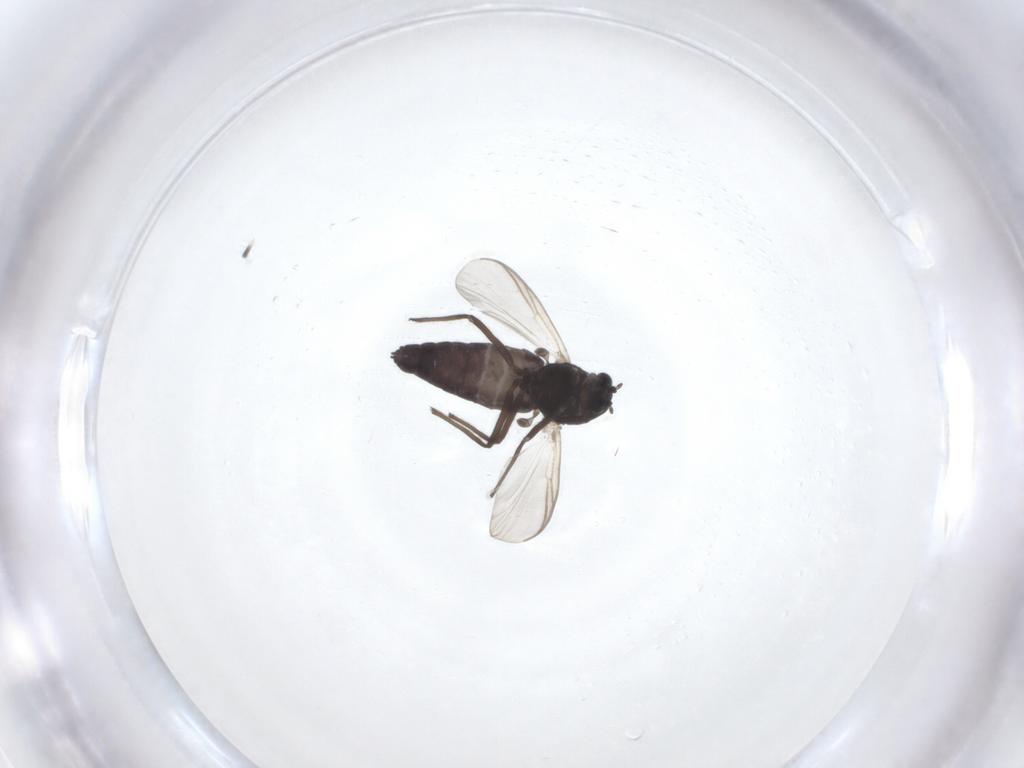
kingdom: Animalia
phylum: Arthropoda
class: Insecta
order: Diptera
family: Chironomidae
